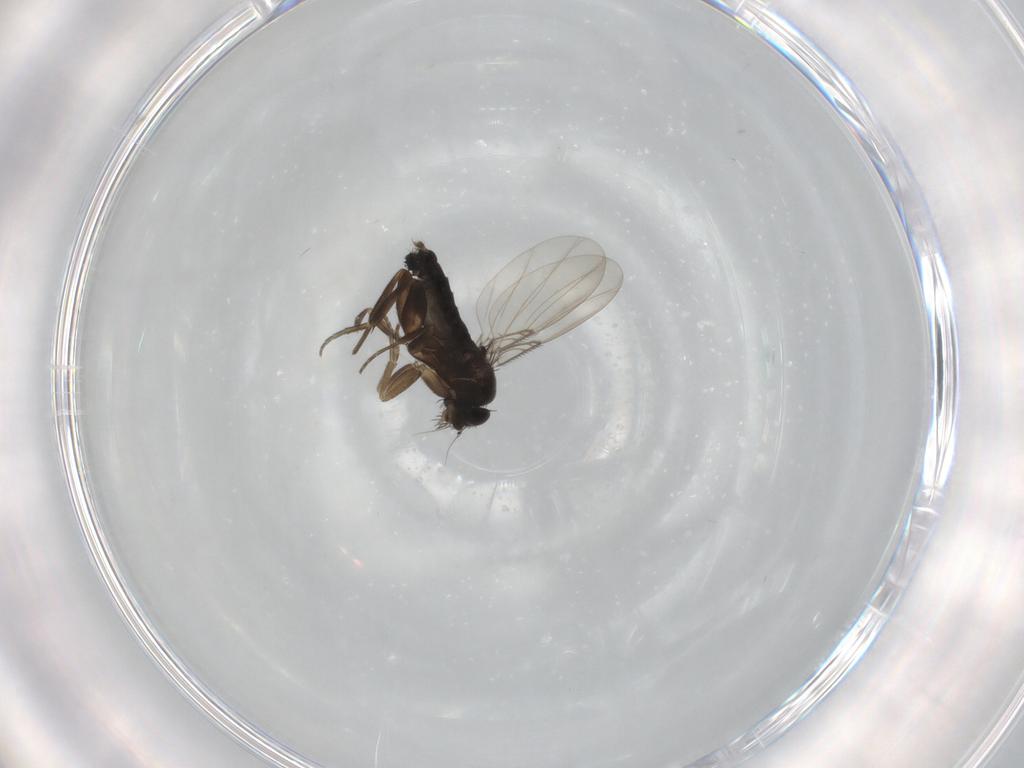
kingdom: Animalia
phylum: Arthropoda
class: Insecta
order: Diptera
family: Phoridae
